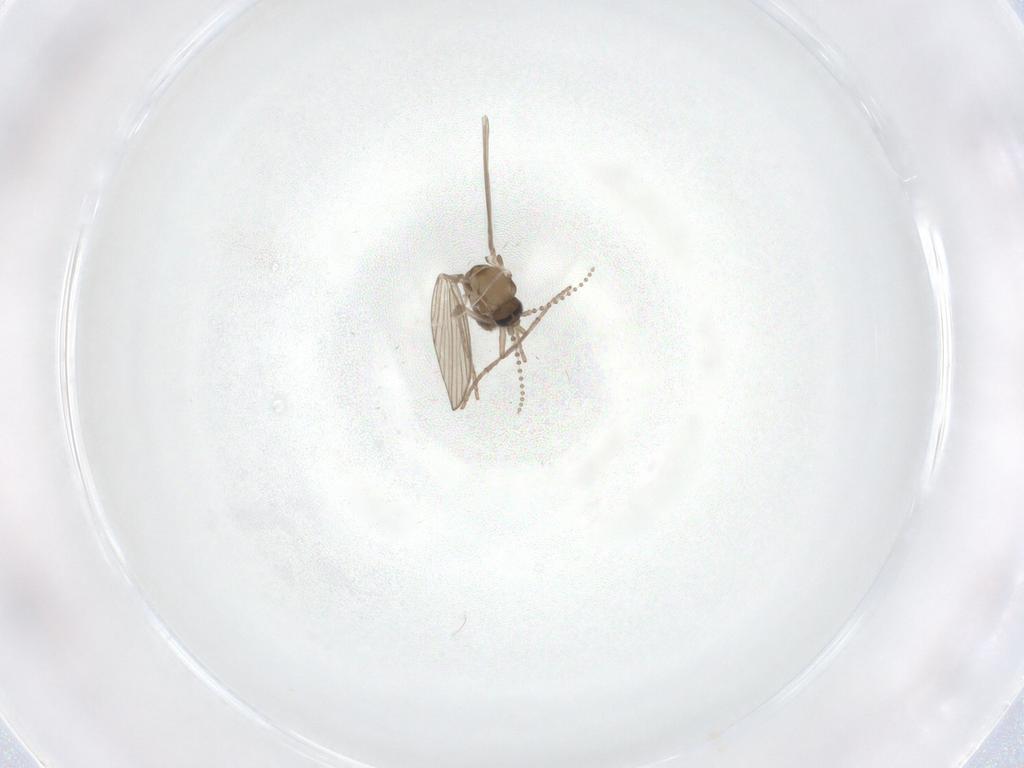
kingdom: Animalia
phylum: Arthropoda
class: Insecta
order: Diptera
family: Psychodidae
